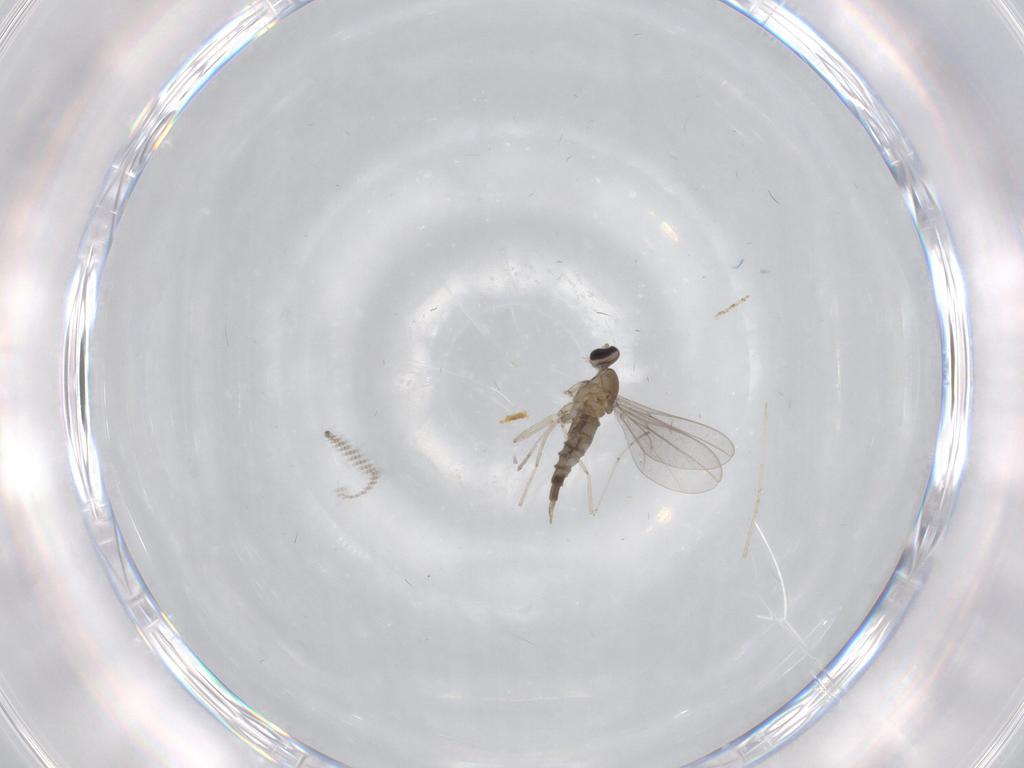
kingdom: Animalia
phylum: Arthropoda
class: Insecta
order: Diptera
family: Chironomidae
